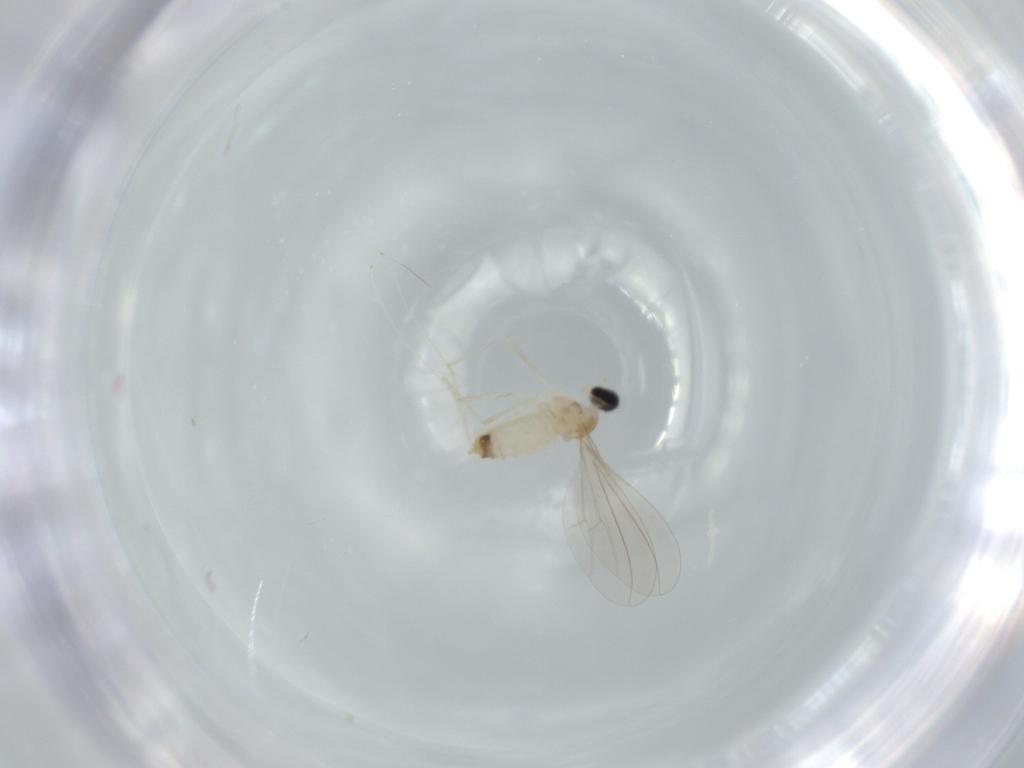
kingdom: Animalia
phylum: Arthropoda
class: Insecta
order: Diptera
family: Cecidomyiidae
